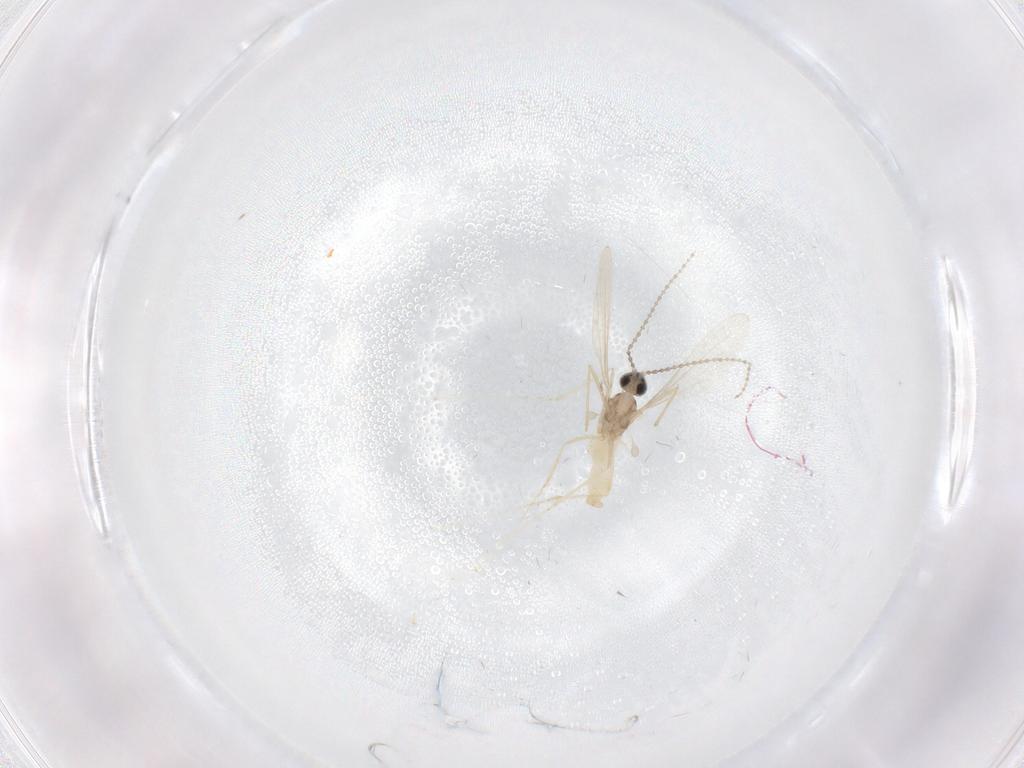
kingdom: Animalia
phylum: Arthropoda
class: Insecta
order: Diptera
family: Cecidomyiidae
